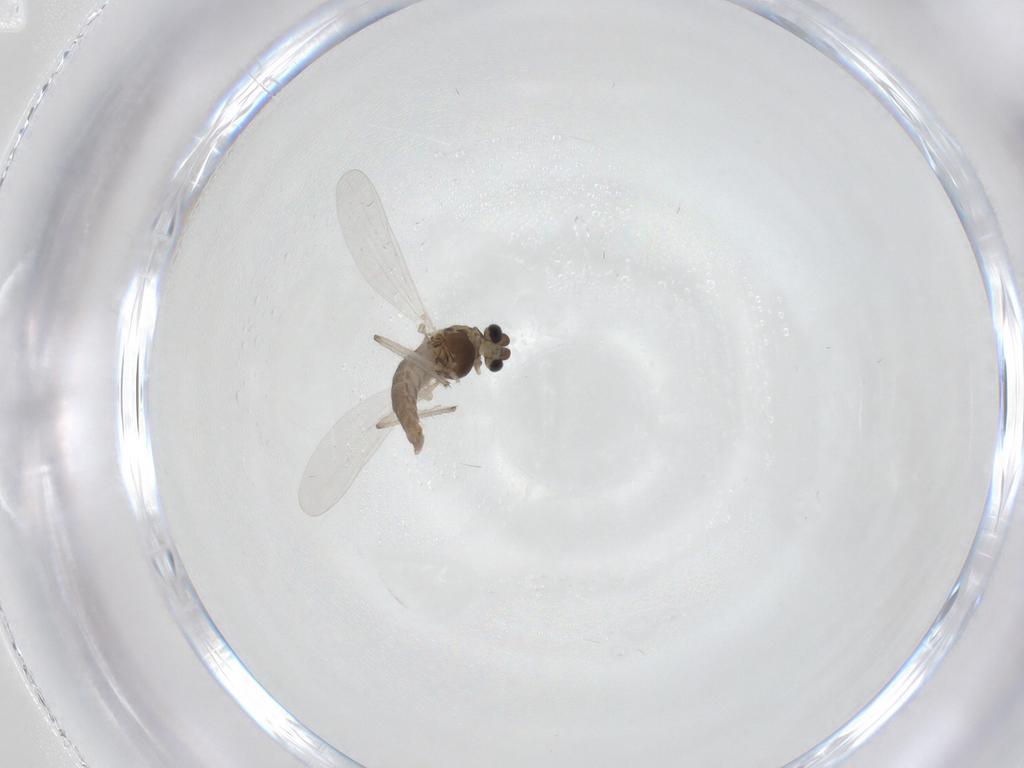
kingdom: Animalia
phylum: Arthropoda
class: Insecta
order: Diptera
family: Chironomidae
